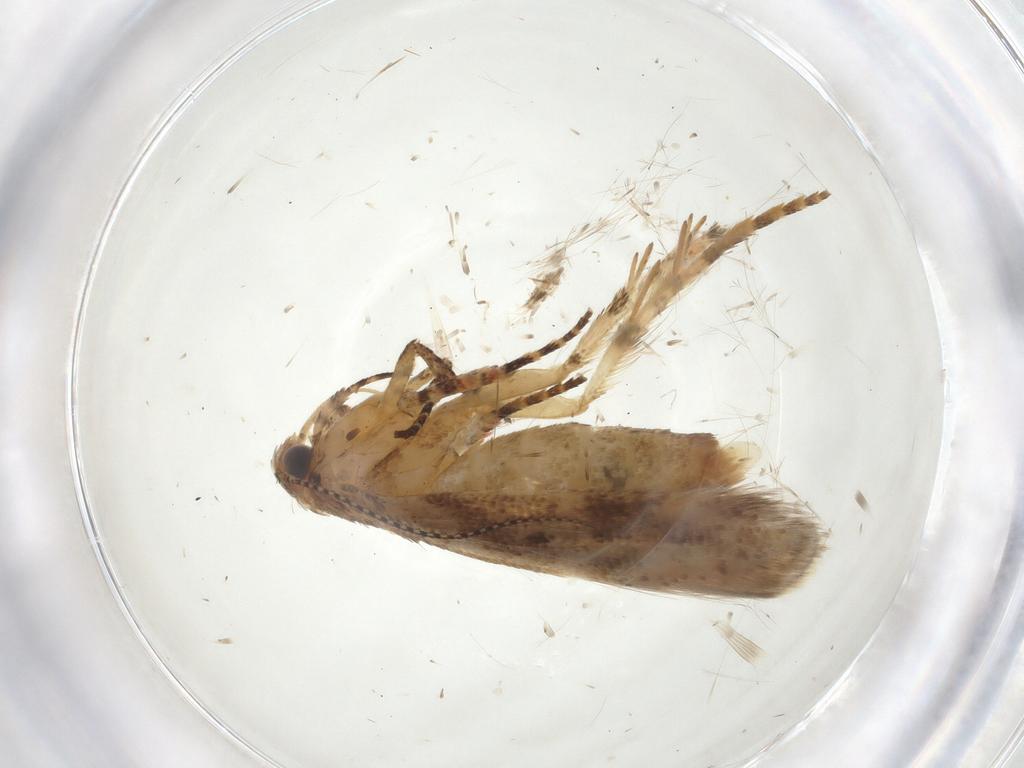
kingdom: Animalia
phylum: Arthropoda
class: Insecta
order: Lepidoptera
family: Gelechiidae
